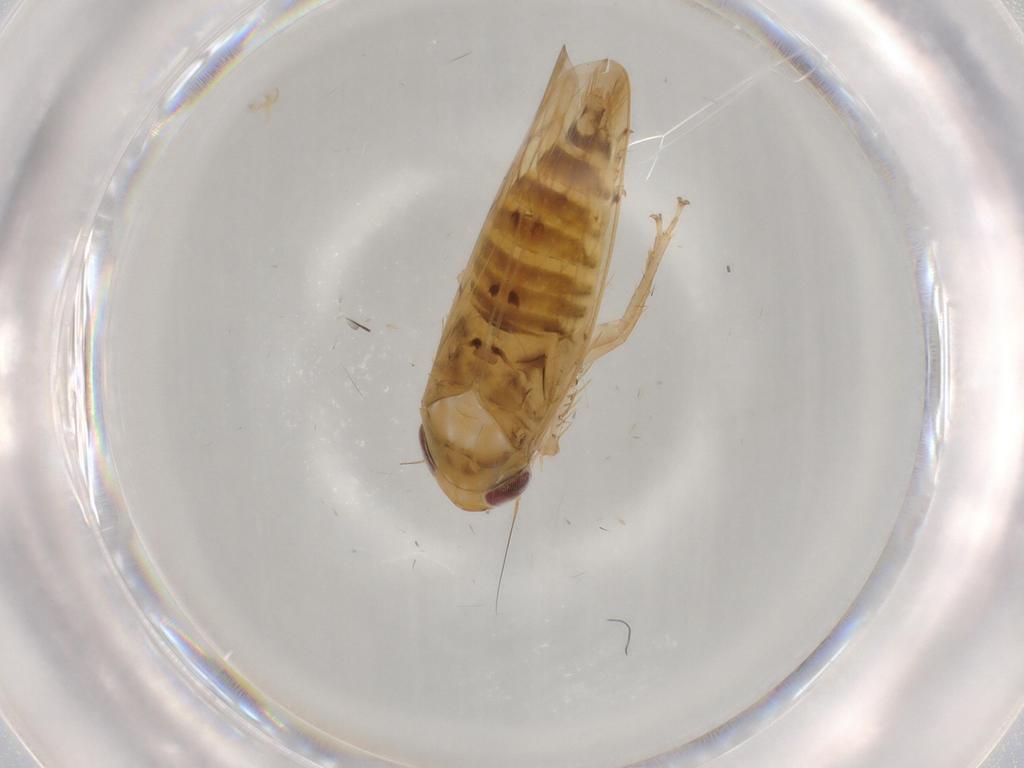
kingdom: Animalia
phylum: Arthropoda
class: Insecta
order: Hemiptera
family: Cicadellidae
